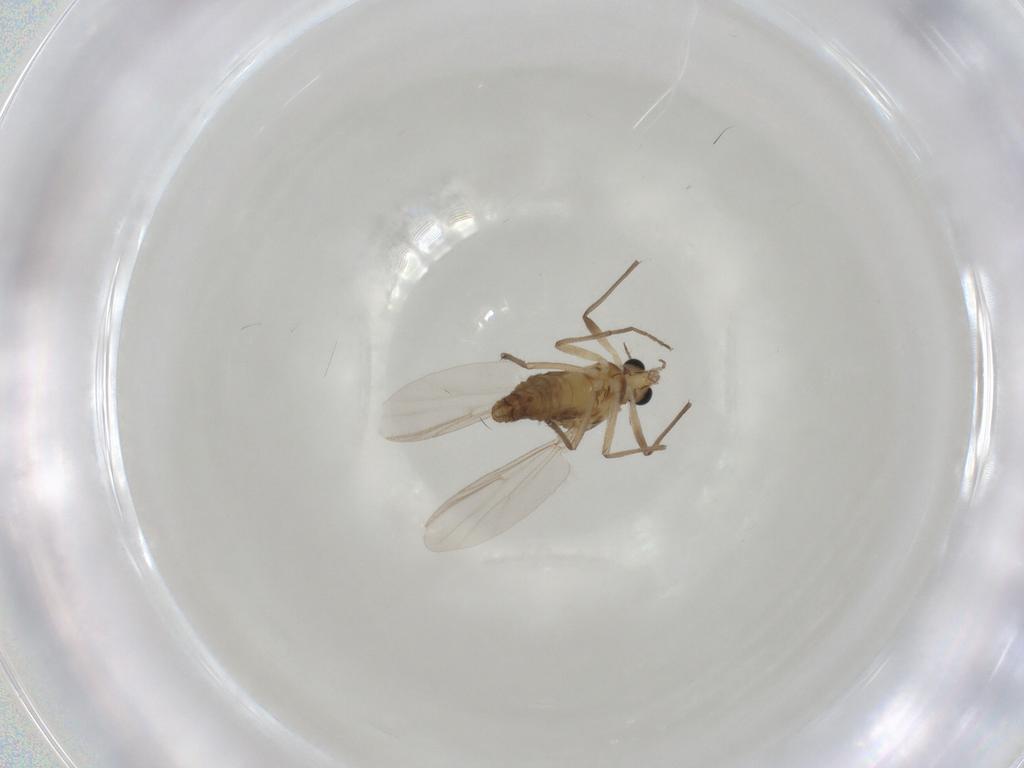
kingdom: Animalia
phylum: Arthropoda
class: Insecta
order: Diptera
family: Chironomidae
